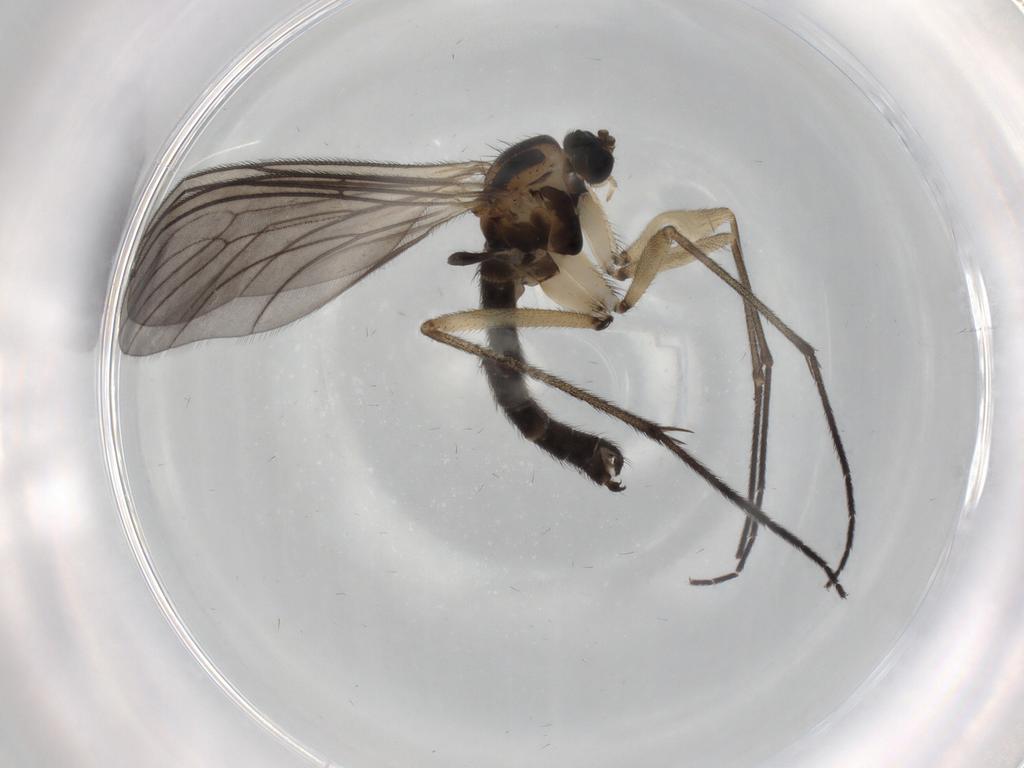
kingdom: Animalia
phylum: Arthropoda
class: Insecta
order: Diptera
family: Sciaridae
